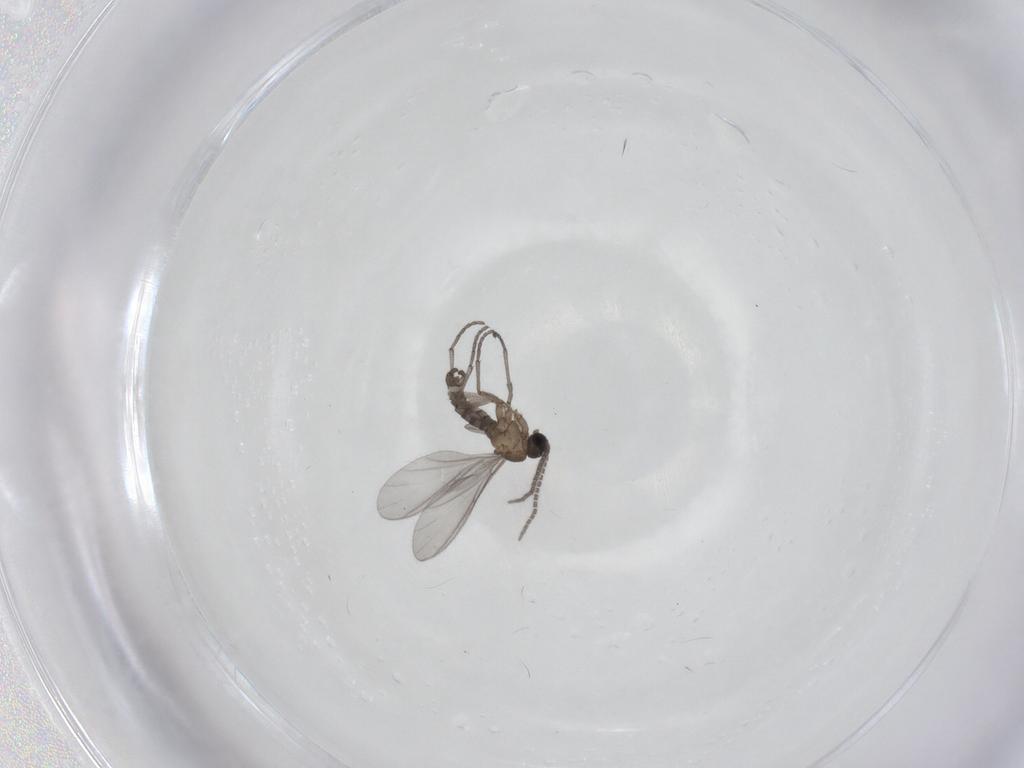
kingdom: Animalia
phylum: Arthropoda
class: Insecta
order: Diptera
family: Sciaridae
